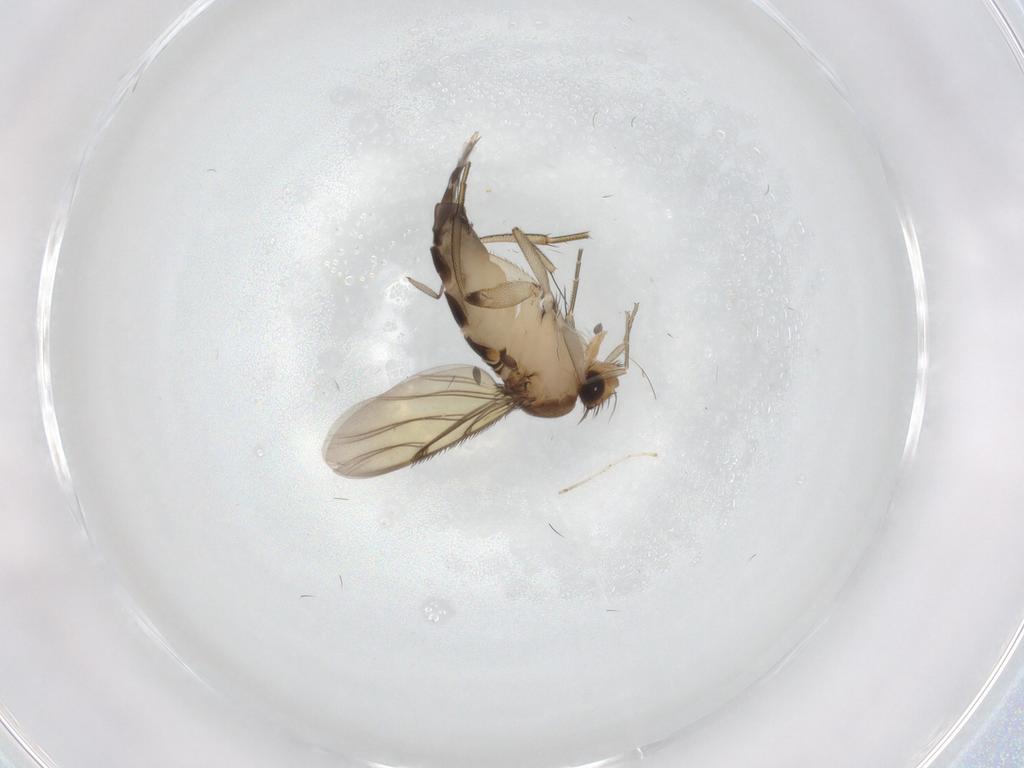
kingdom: Animalia
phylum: Arthropoda
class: Insecta
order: Diptera
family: Phoridae
